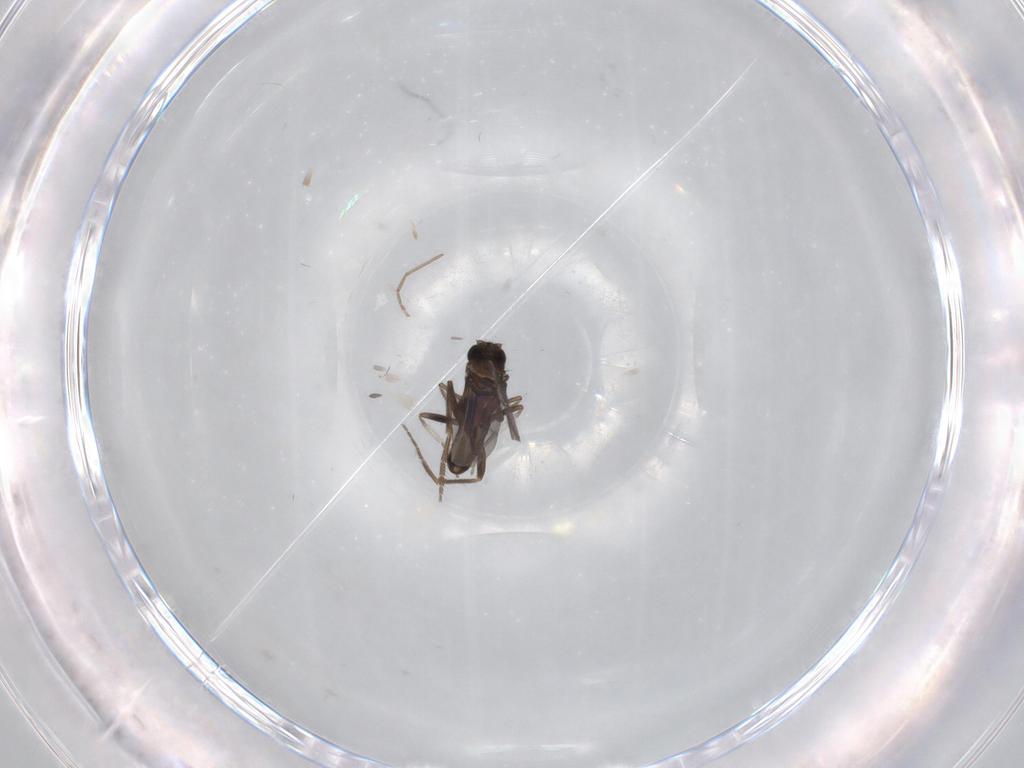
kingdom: Animalia
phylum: Arthropoda
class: Insecta
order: Diptera
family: Phoridae
